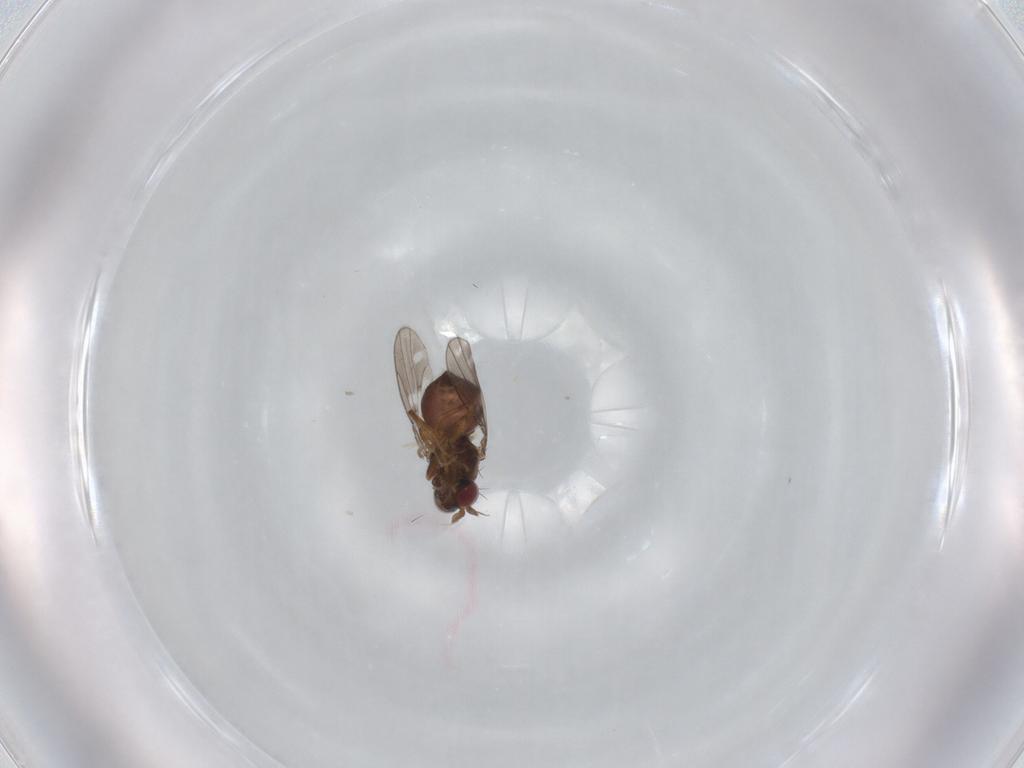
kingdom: Animalia
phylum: Arthropoda
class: Insecta
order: Diptera
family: Ephydridae
